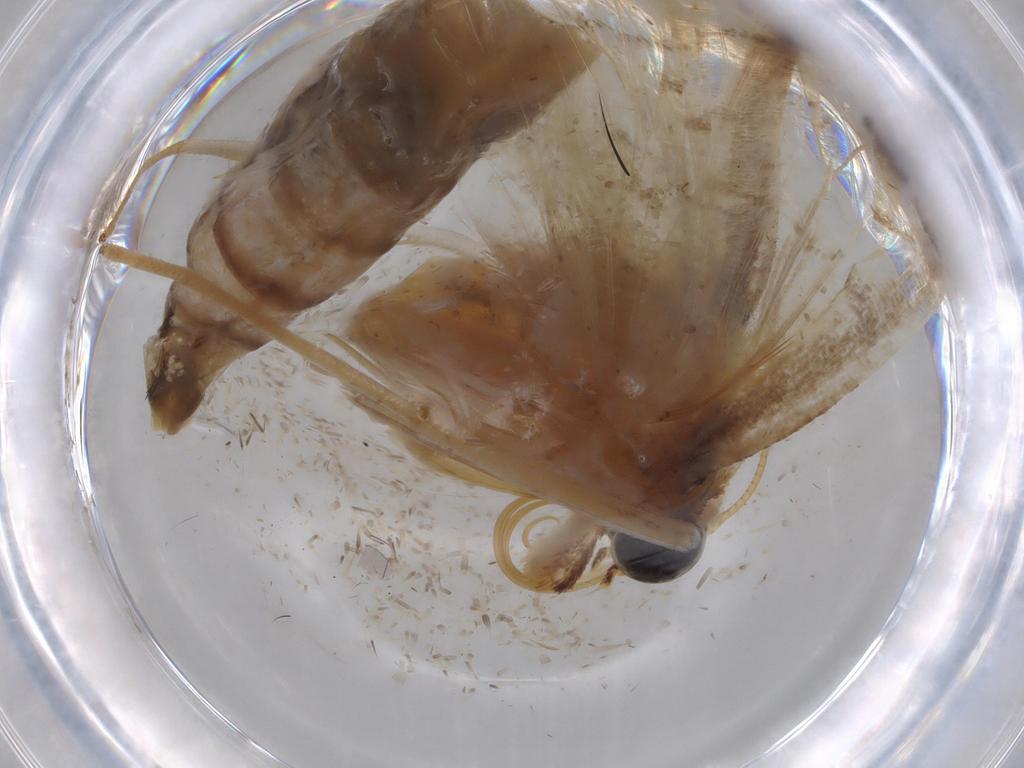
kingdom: Animalia
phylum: Arthropoda
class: Insecta
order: Lepidoptera
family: Crambidae
